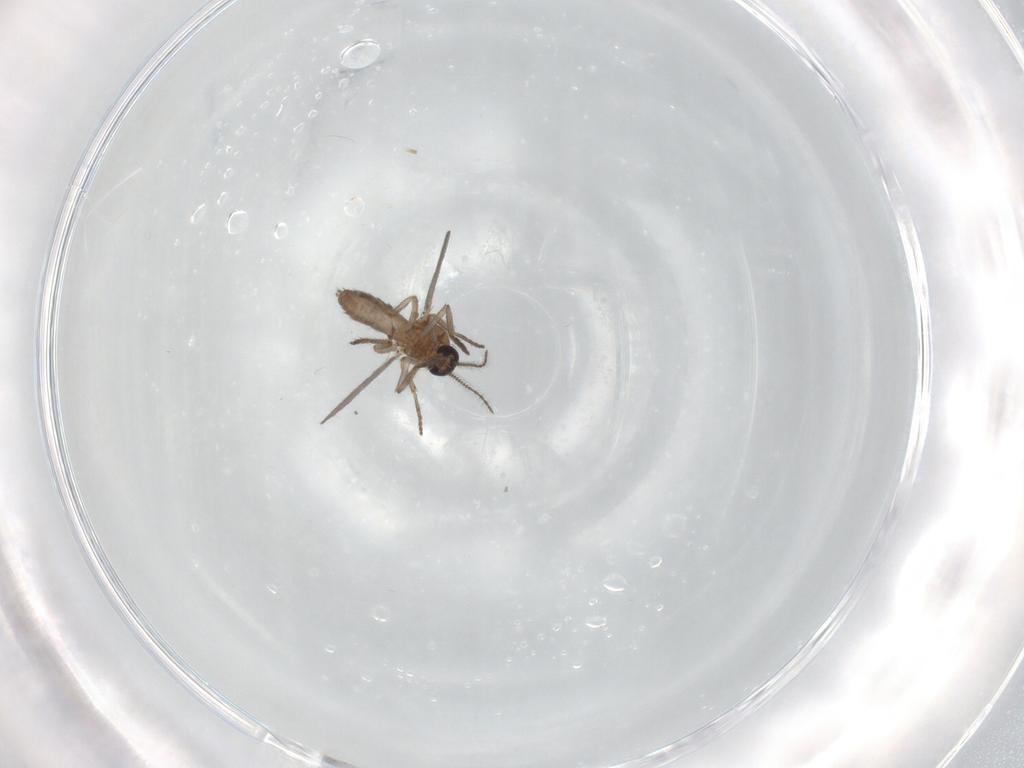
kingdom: Animalia
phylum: Arthropoda
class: Insecta
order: Diptera
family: Muscidae
